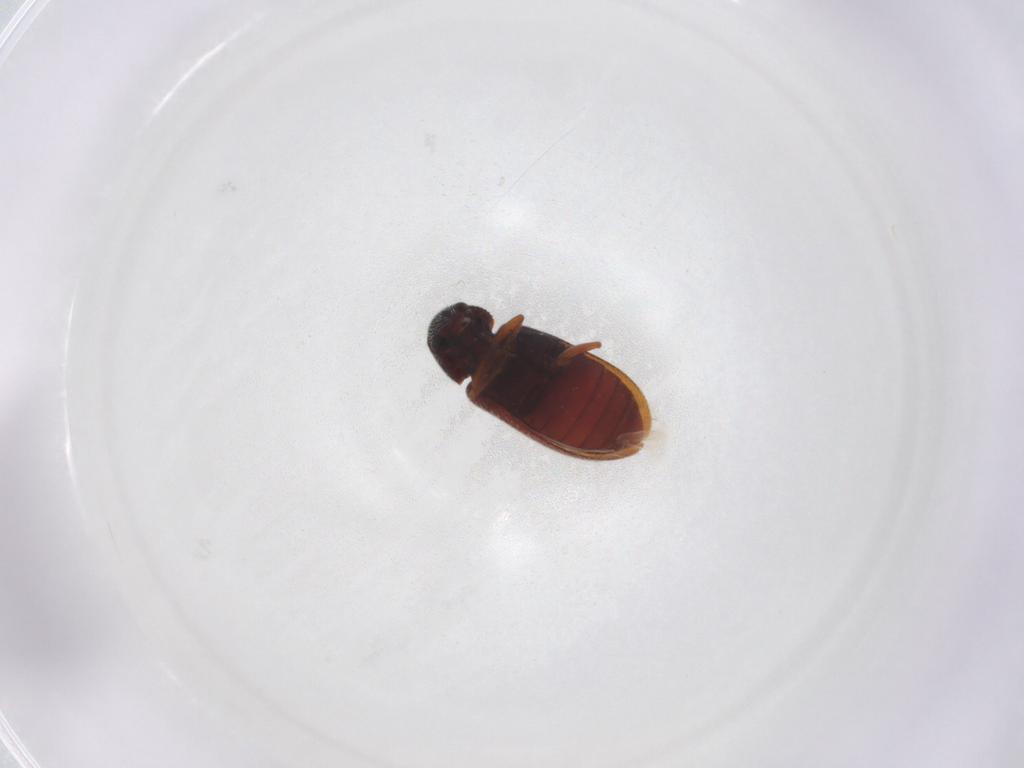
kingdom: Animalia
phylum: Arthropoda
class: Insecta
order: Coleoptera
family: Rhadalidae
